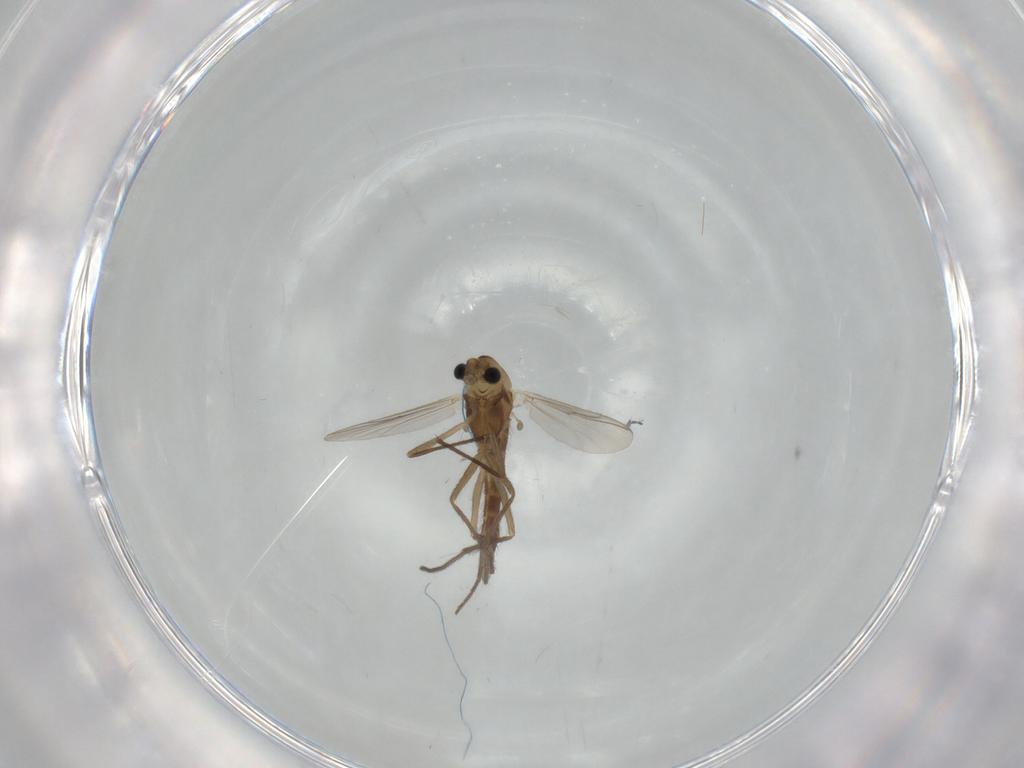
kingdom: Animalia
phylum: Arthropoda
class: Insecta
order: Diptera
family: Chironomidae
